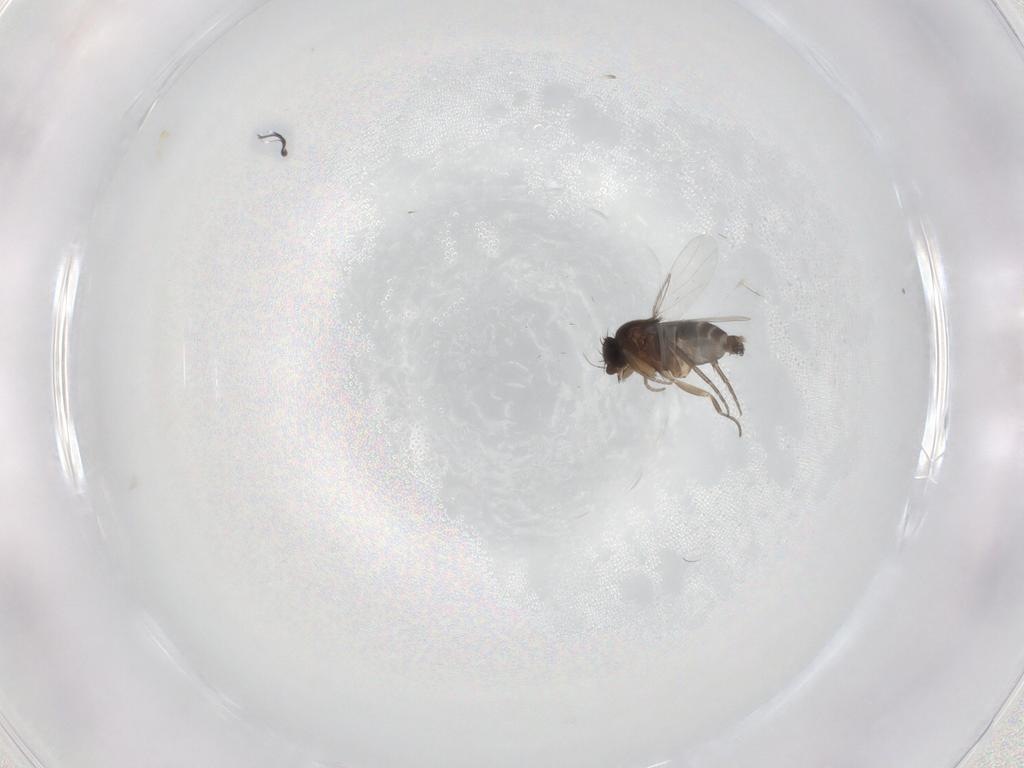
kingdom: Animalia
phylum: Arthropoda
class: Insecta
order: Diptera
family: Phoridae
